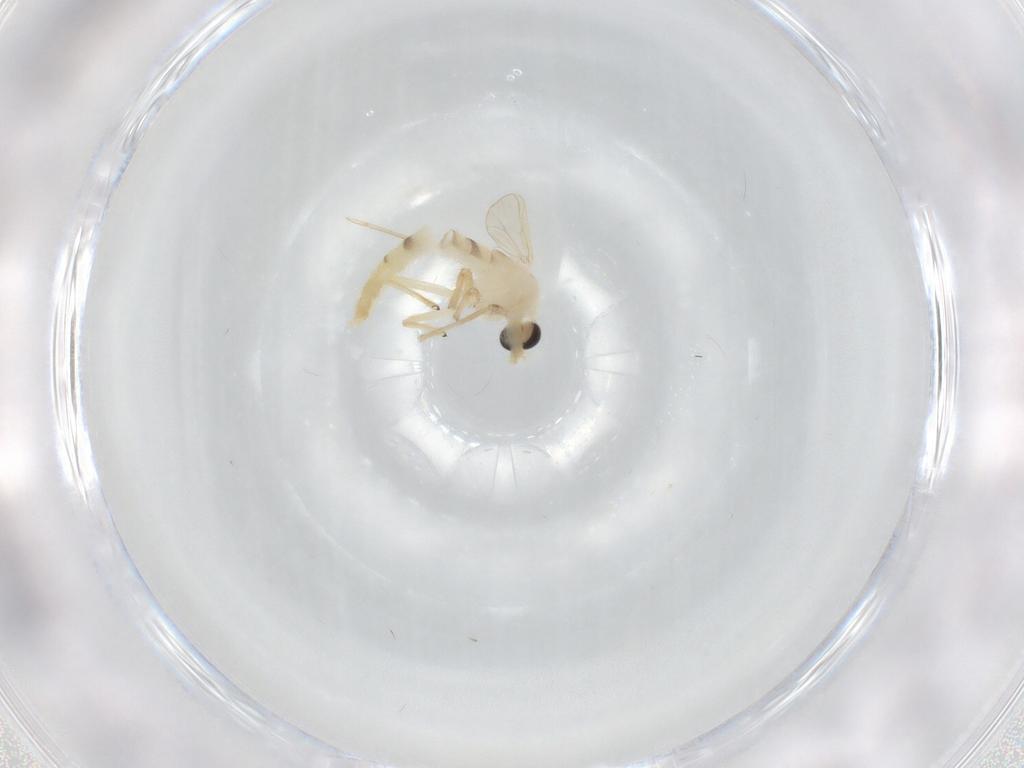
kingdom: Animalia
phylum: Arthropoda
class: Insecta
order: Diptera
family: Chironomidae
